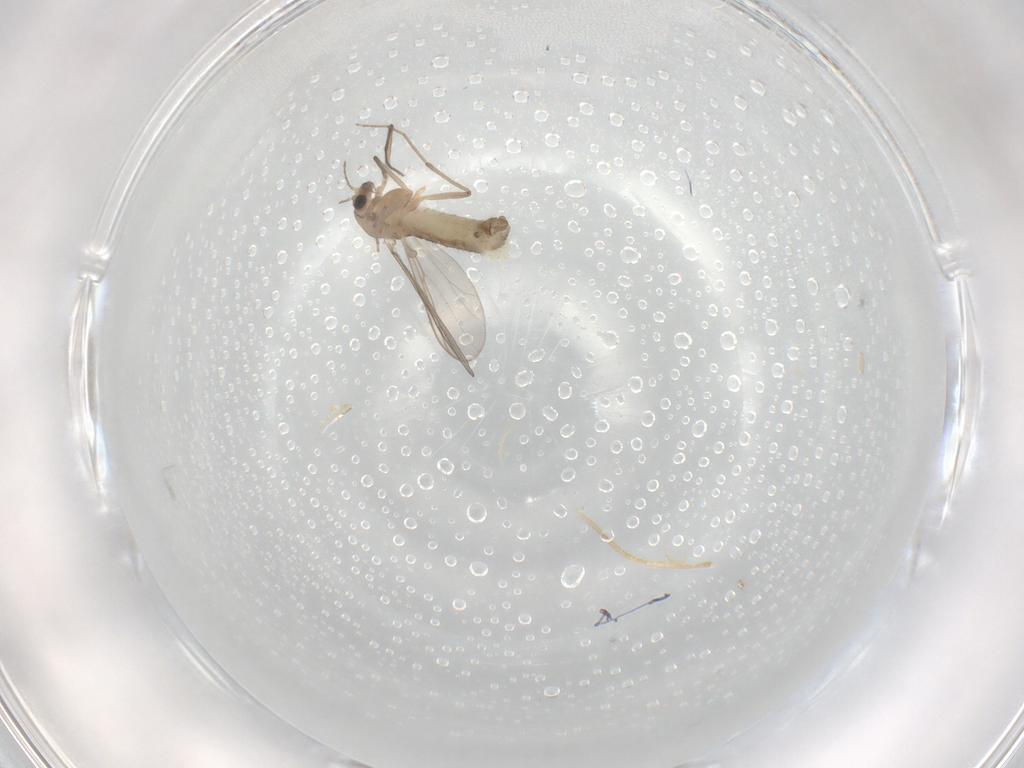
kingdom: Animalia
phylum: Arthropoda
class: Insecta
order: Diptera
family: Chironomidae
